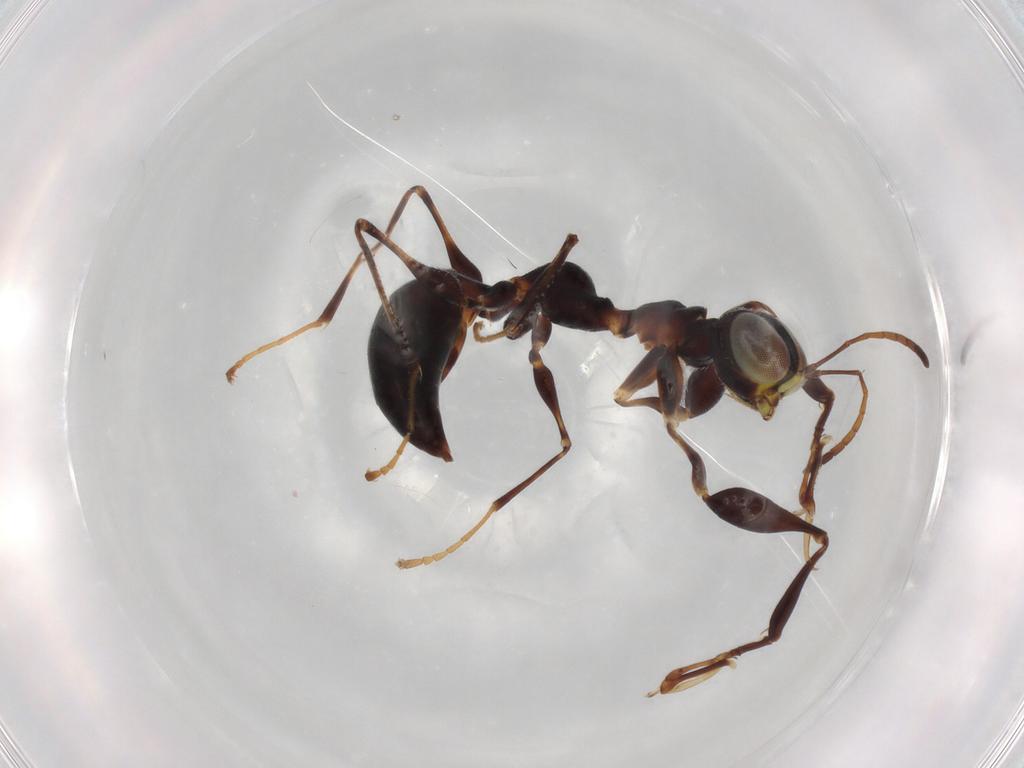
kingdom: Animalia
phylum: Arthropoda
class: Insecta
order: Hymenoptera
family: Dryinidae
